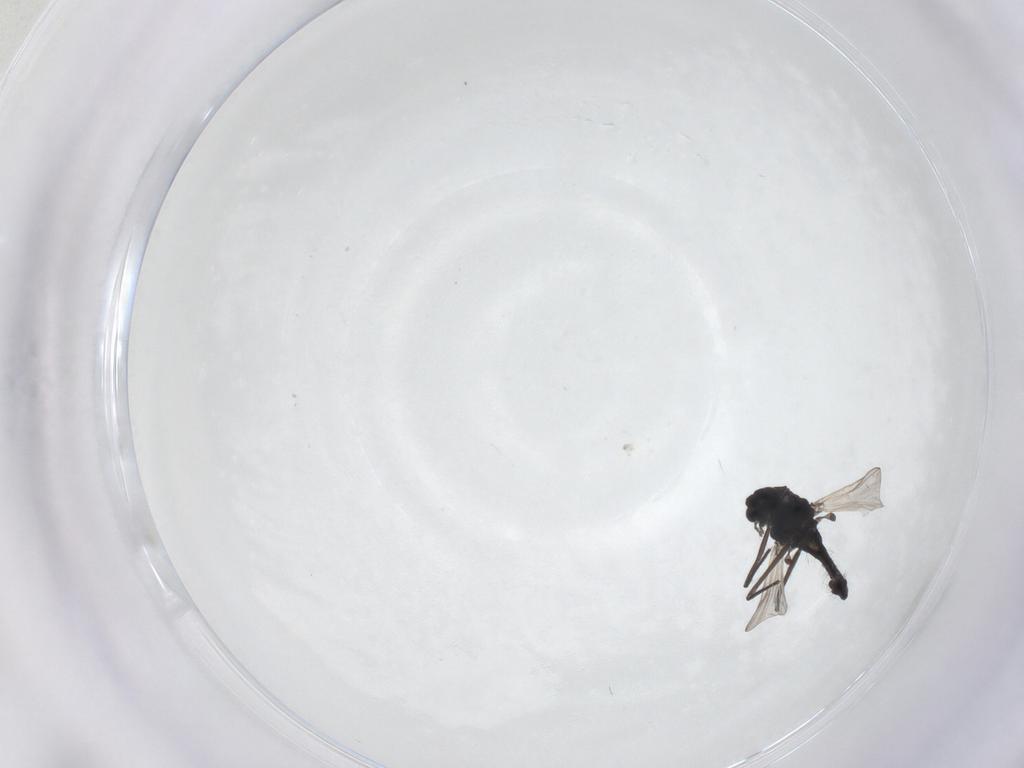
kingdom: Animalia
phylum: Arthropoda
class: Insecta
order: Diptera
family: Chironomidae
